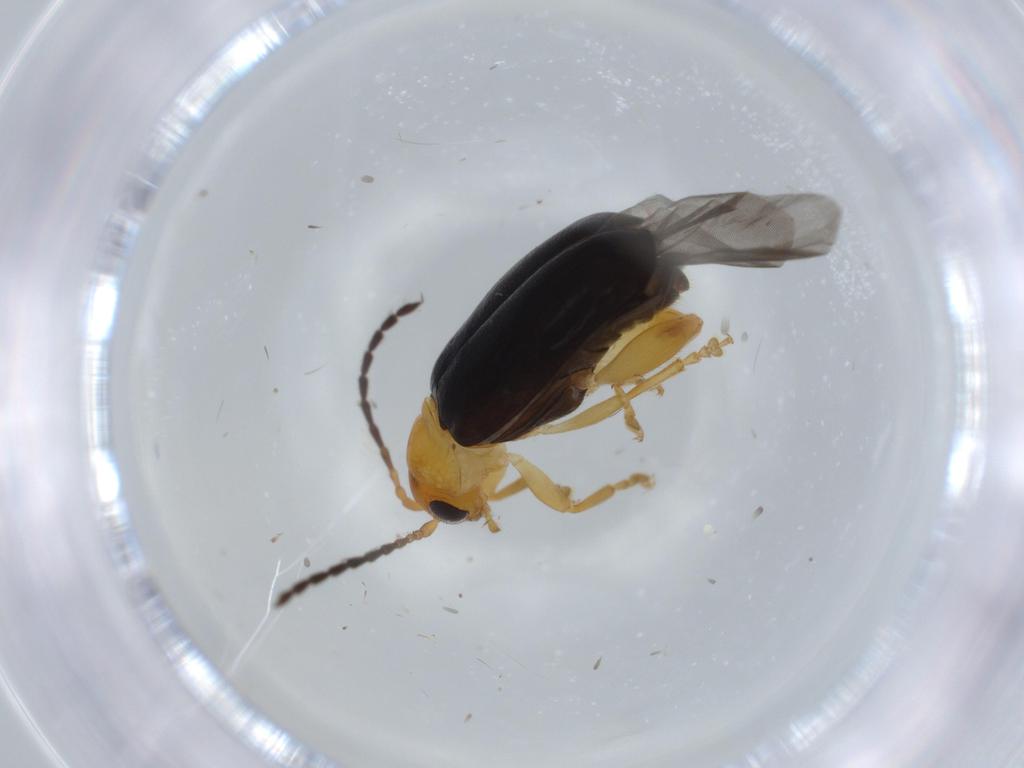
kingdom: Animalia
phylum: Arthropoda
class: Insecta
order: Coleoptera
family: Chrysomelidae
